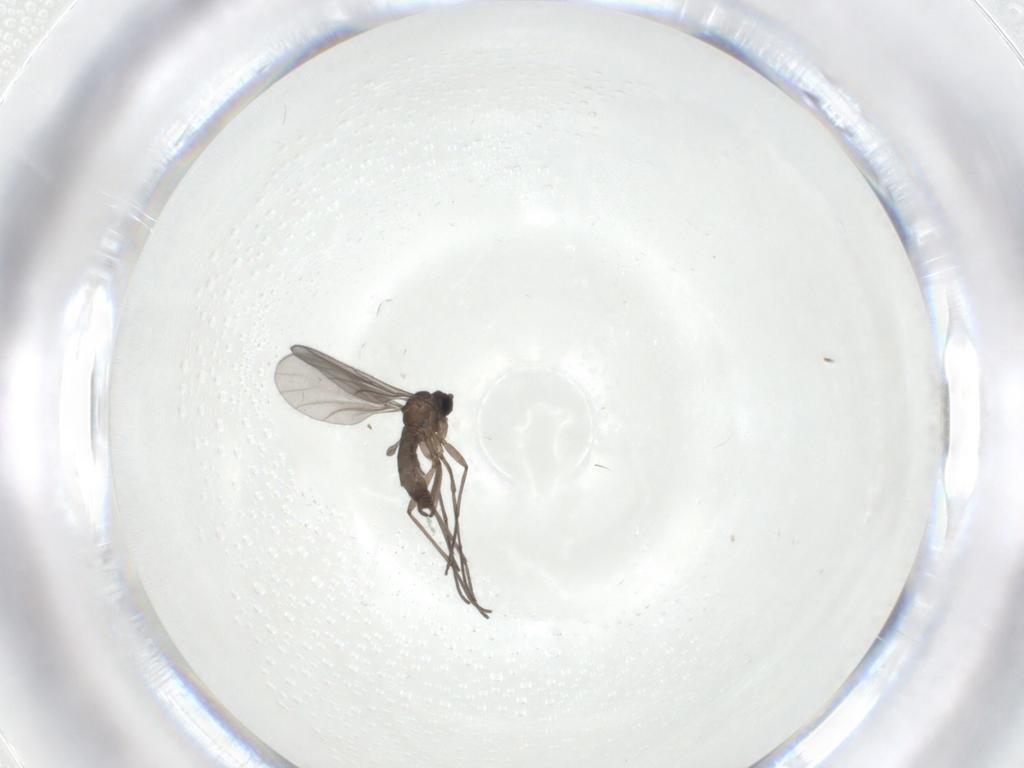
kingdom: Animalia
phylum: Arthropoda
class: Insecta
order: Diptera
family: Sciaridae
